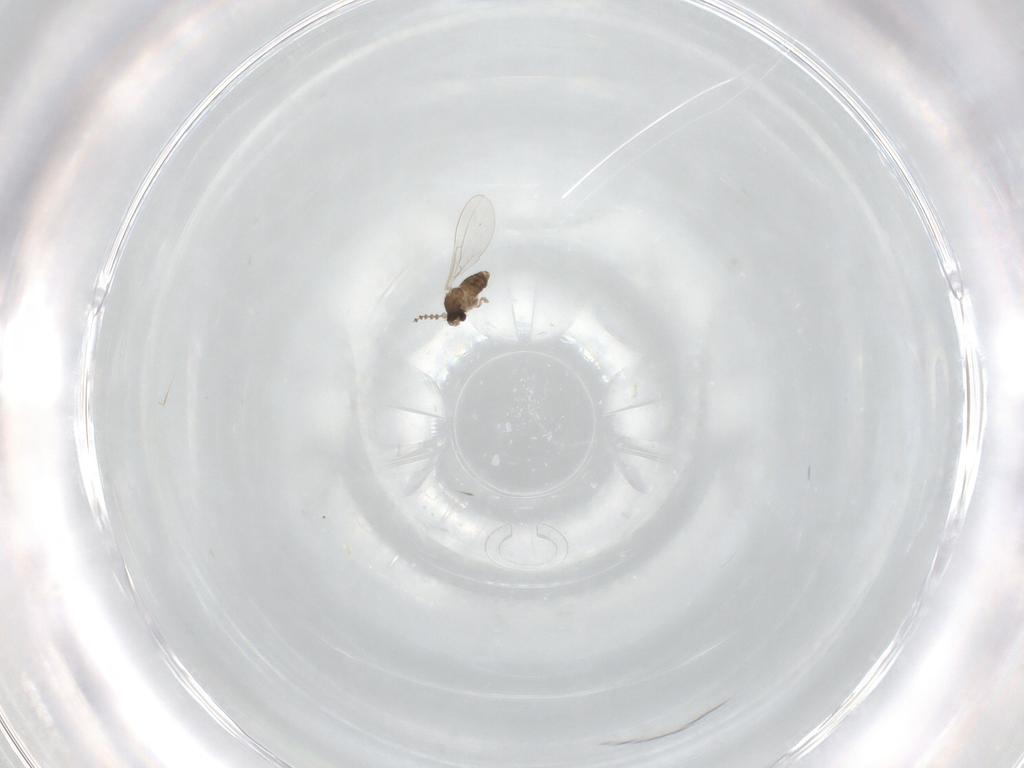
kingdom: Animalia
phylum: Arthropoda
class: Insecta
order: Diptera
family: Cecidomyiidae
